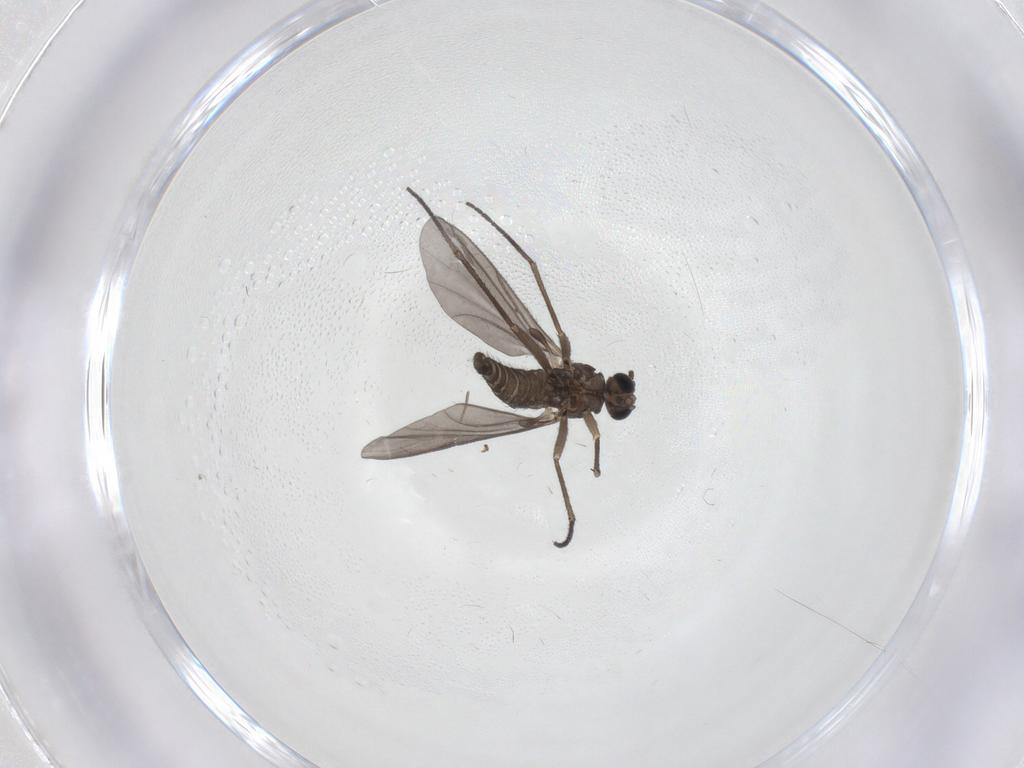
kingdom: Animalia
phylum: Arthropoda
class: Insecta
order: Diptera
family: Sciaridae
